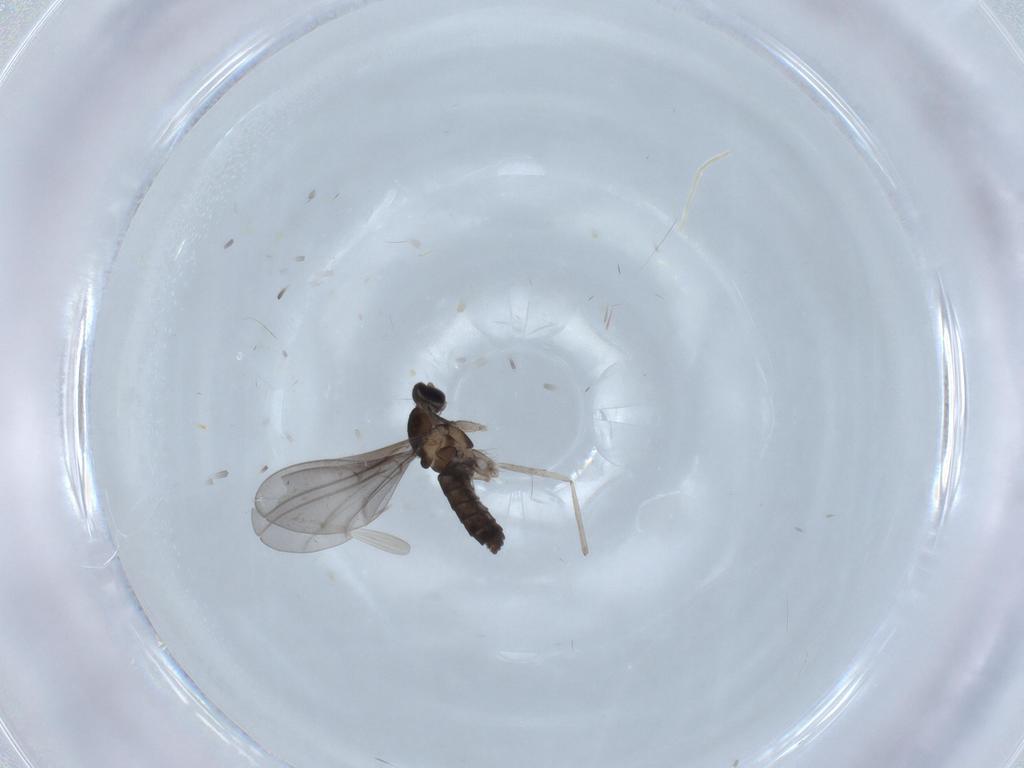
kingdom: Animalia
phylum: Arthropoda
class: Insecta
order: Diptera
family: Cecidomyiidae
